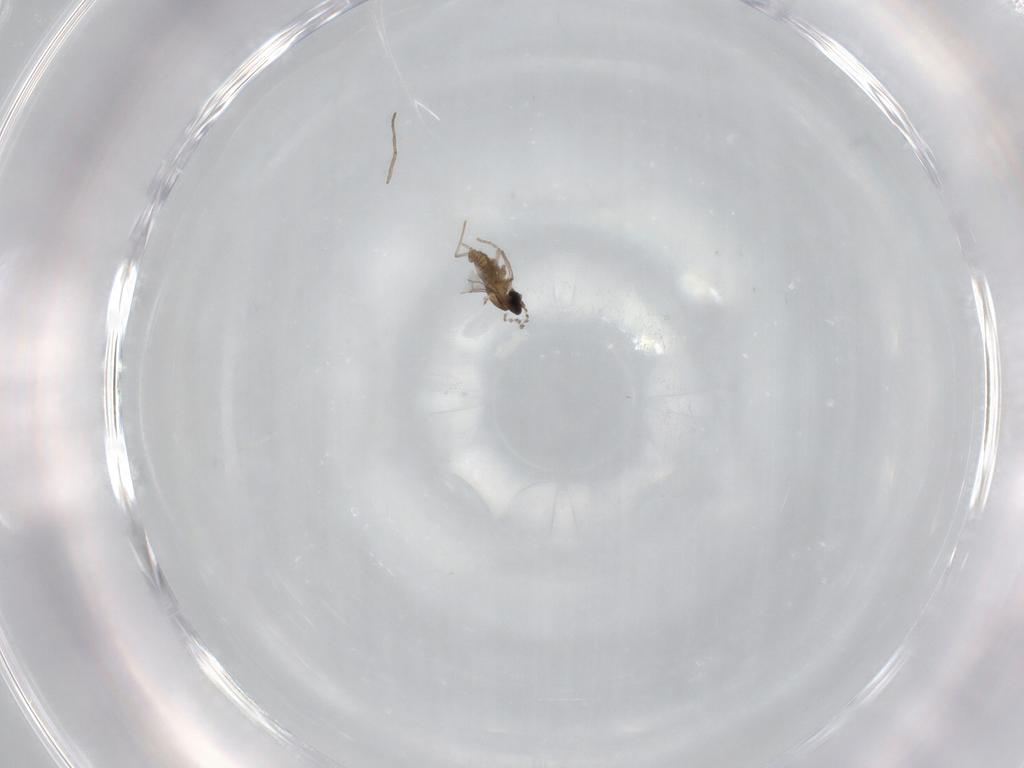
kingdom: Animalia
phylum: Arthropoda
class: Insecta
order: Diptera
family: Cecidomyiidae
